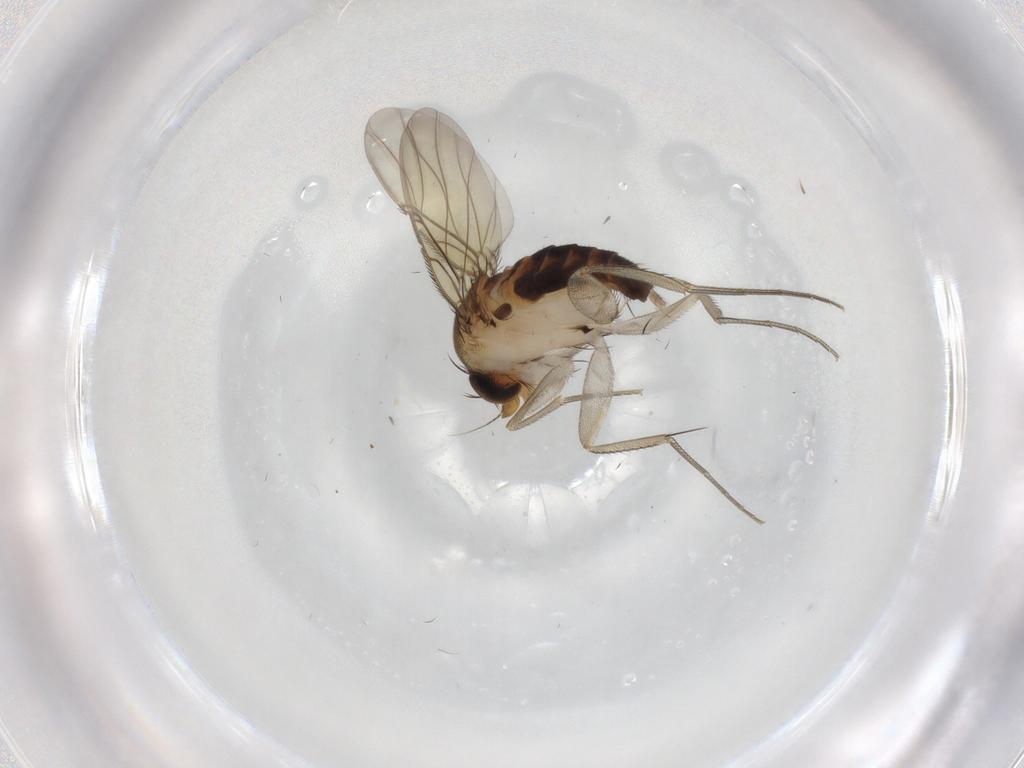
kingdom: Animalia
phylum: Arthropoda
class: Insecta
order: Diptera
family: Phoridae
